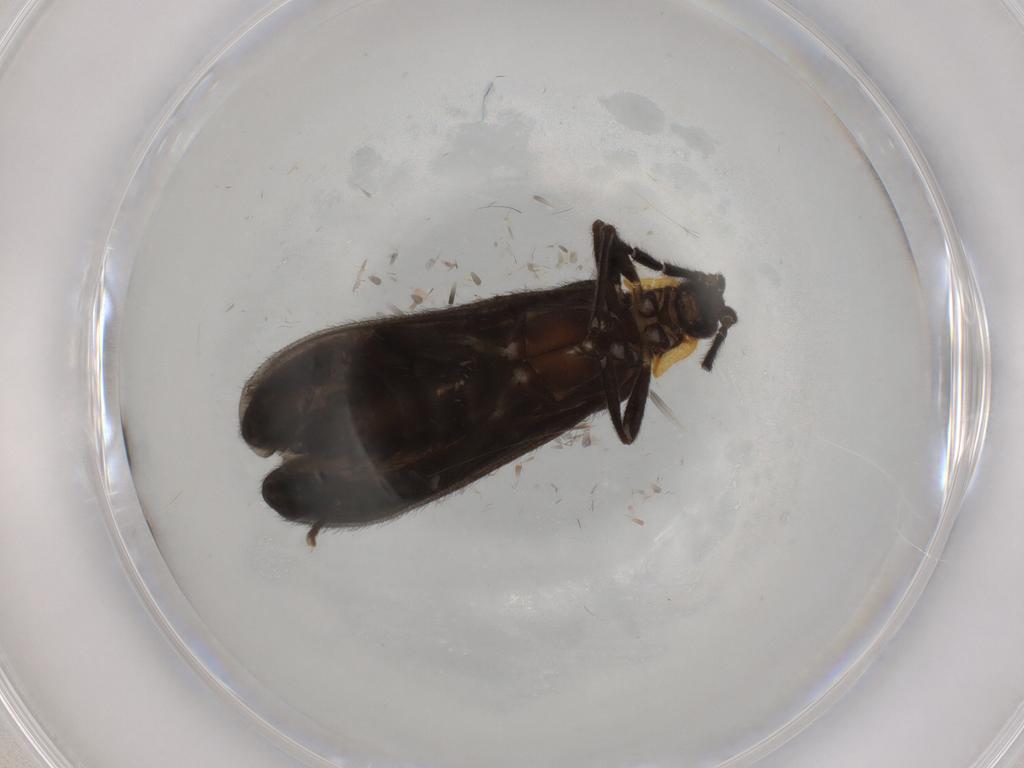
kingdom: Animalia
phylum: Arthropoda
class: Insecta
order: Coleoptera
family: Lycidae
